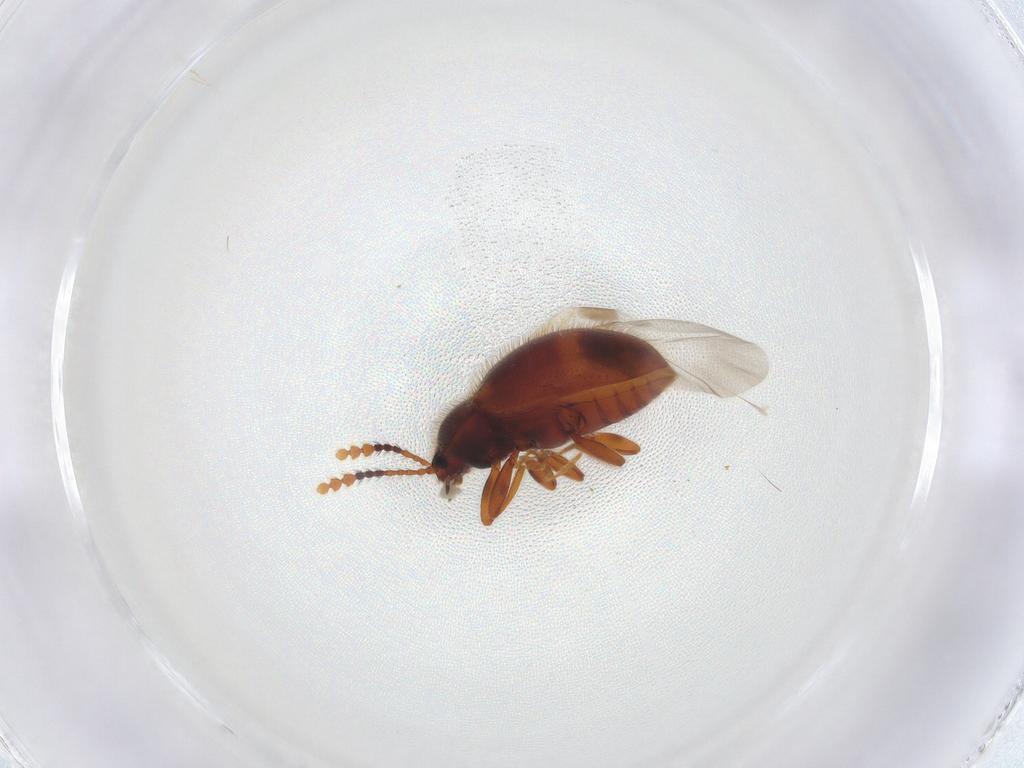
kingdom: Animalia
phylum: Arthropoda
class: Insecta
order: Coleoptera
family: Erotylidae
